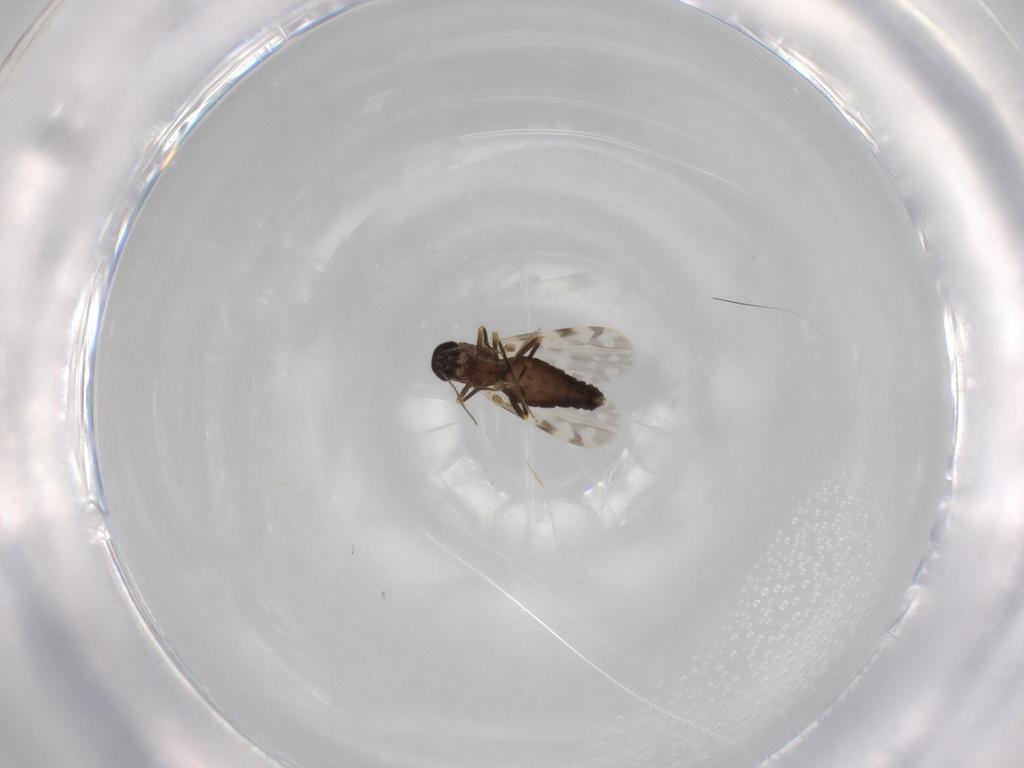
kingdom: Animalia
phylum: Arthropoda
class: Insecta
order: Diptera
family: Ceratopogonidae
